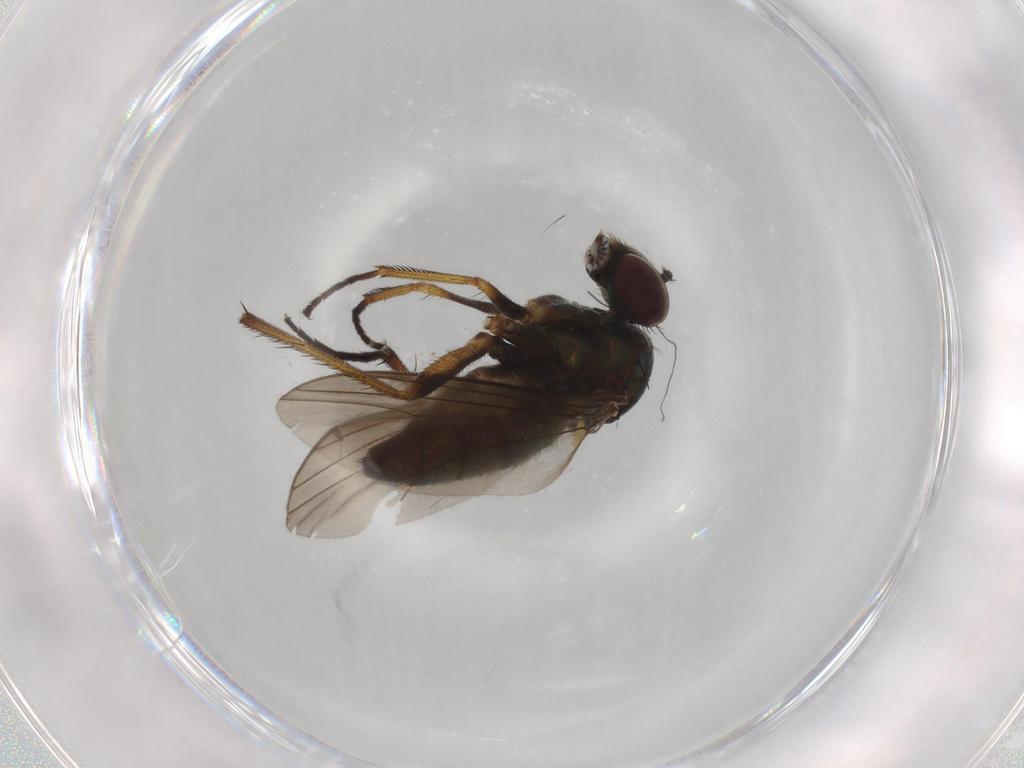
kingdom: Animalia
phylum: Arthropoda
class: Insecta
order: Diptera
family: Dolichopodidae
